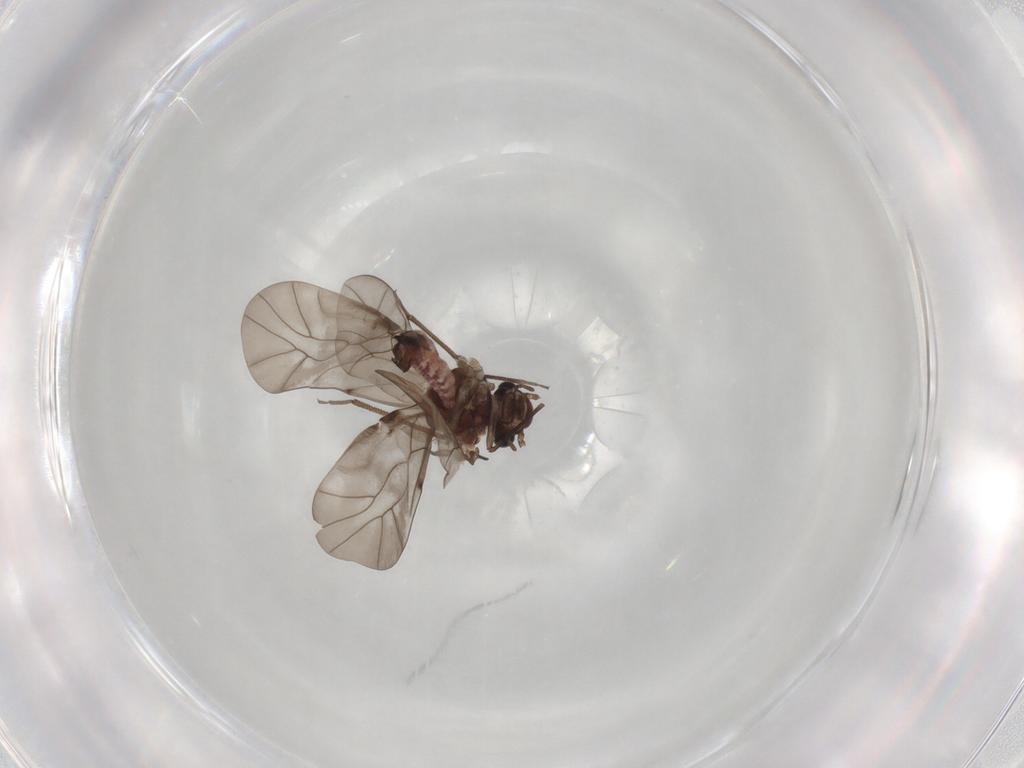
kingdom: Animalia
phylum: Arthropoda
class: Insecta
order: Psocodea
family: Peripsocidae
